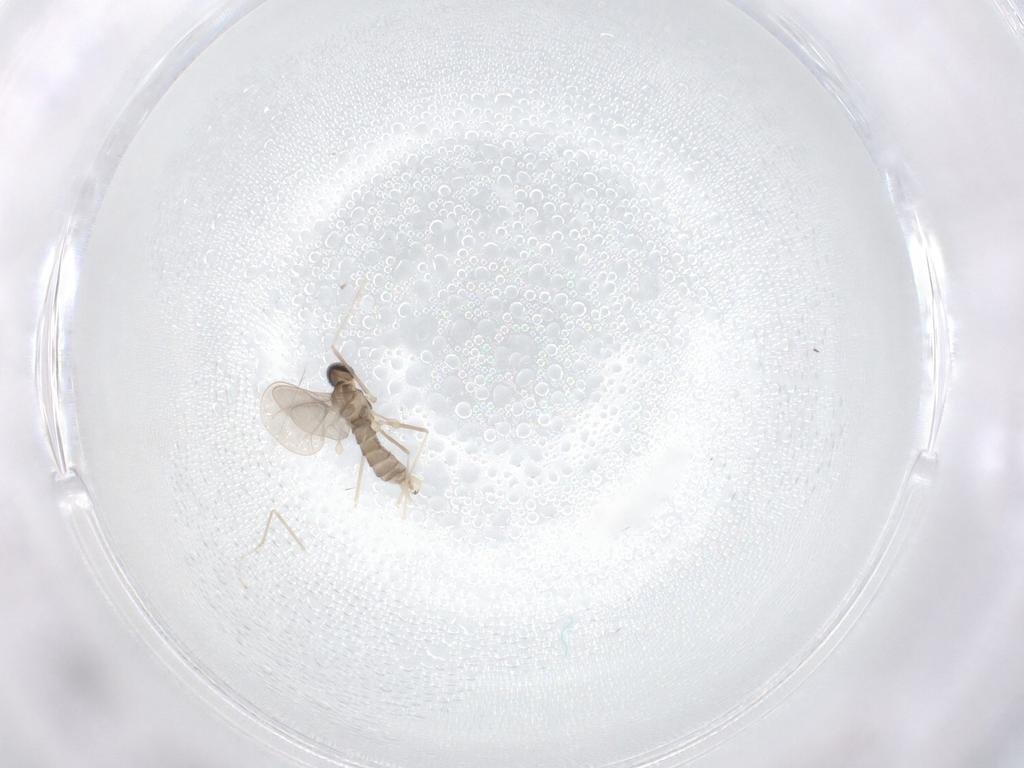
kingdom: Animalia
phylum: Arthropoda
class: Insecta
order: Diptera
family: Cecidomyiidae
